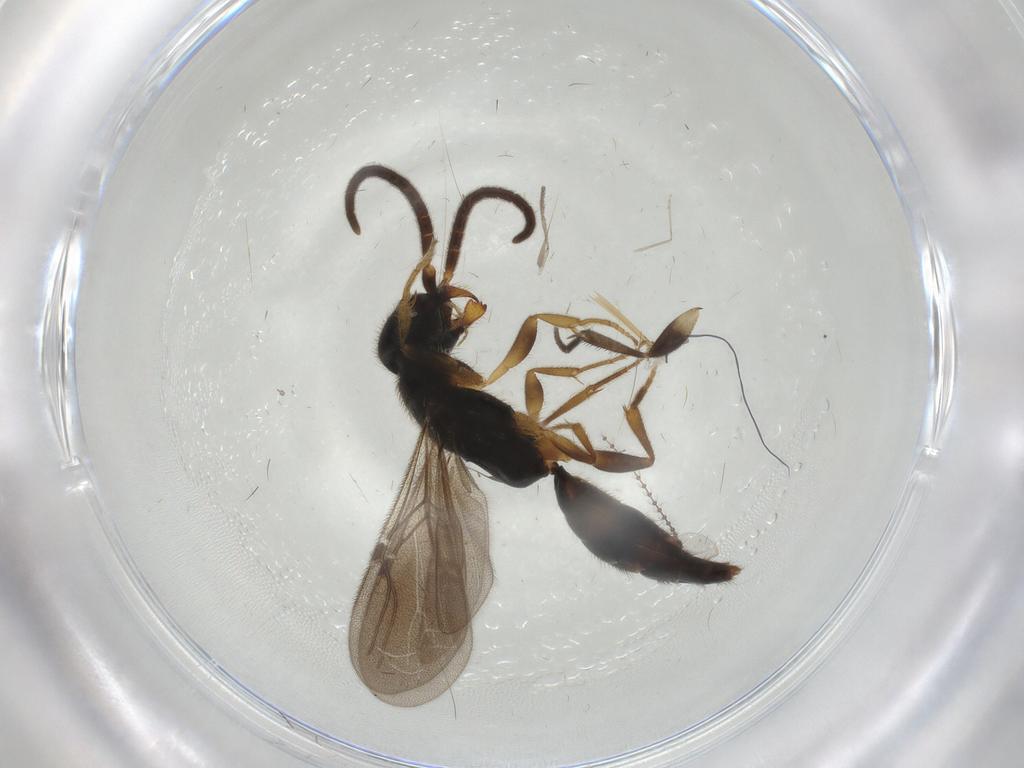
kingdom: Animalia
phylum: Arthropoda
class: Insecta
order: Hymenoptera
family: Bethylidae
